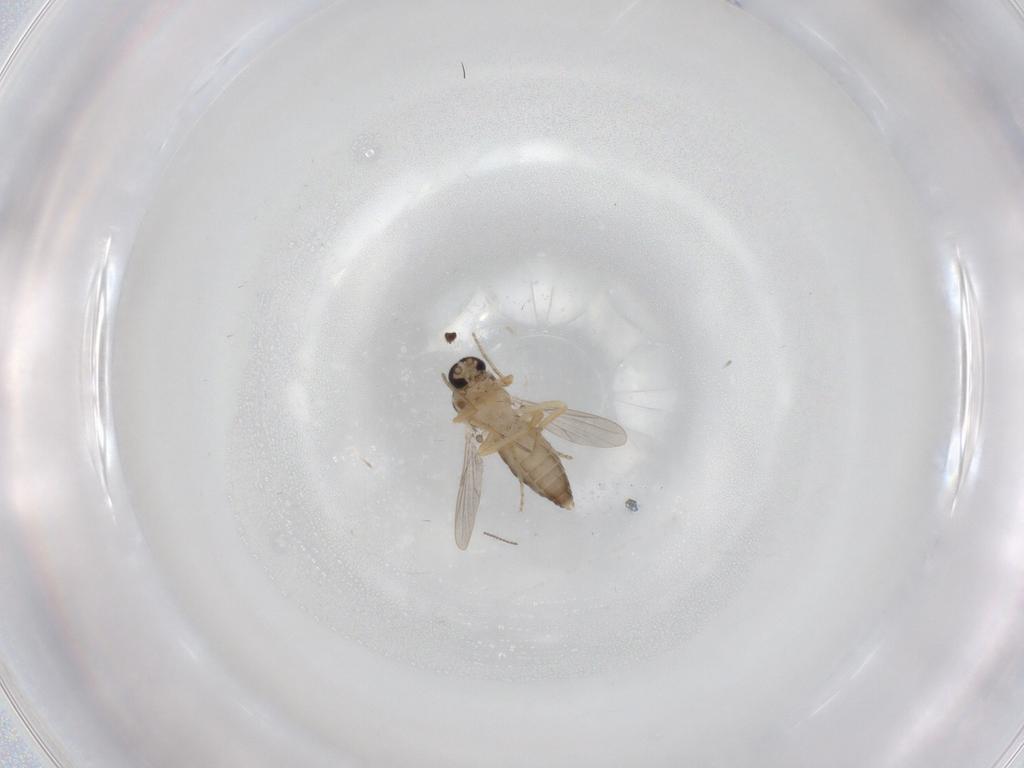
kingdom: Animalia
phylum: Arthropoda
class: Insecta
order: Diptera
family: Ceratopogonidae
